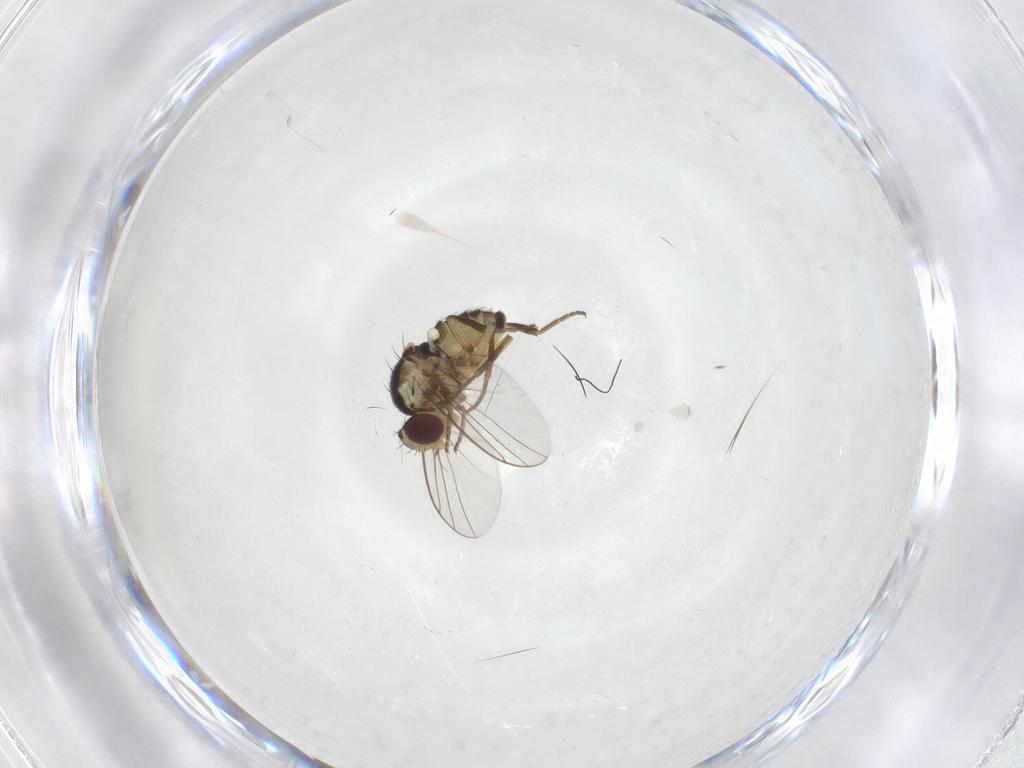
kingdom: Animalia
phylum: Arthropoda
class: Insecta
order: Diptera
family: Agromyzidae
